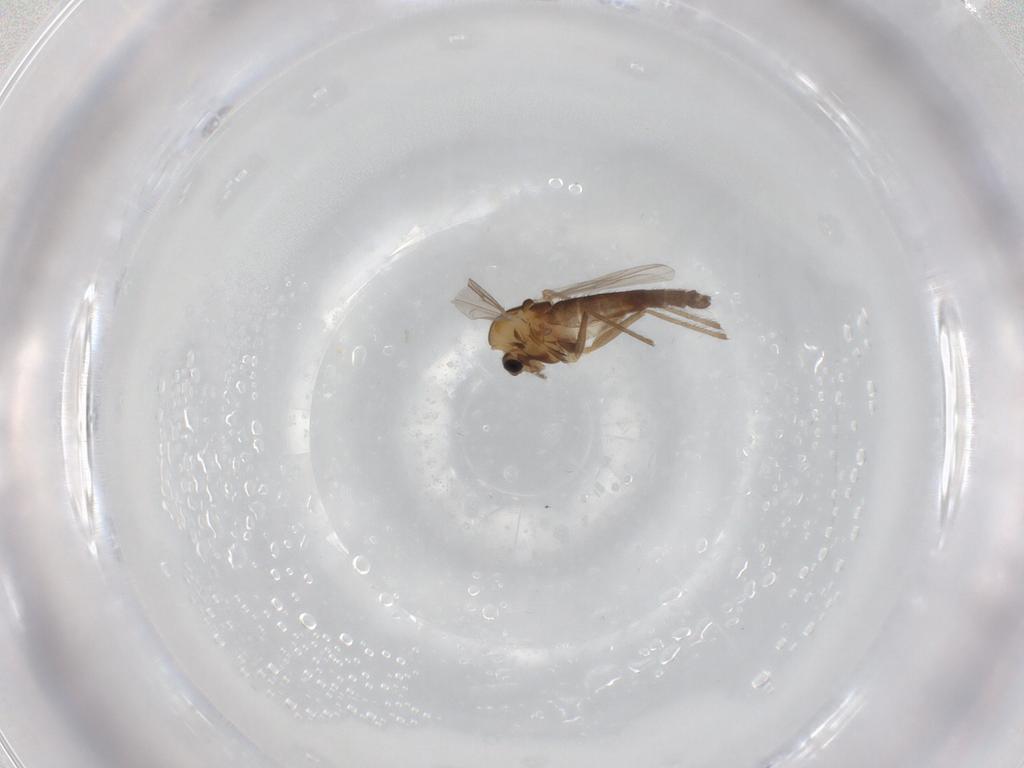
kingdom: Animalia
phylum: Arthropoda
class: Insecta
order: Diptera
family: Chironomidae
